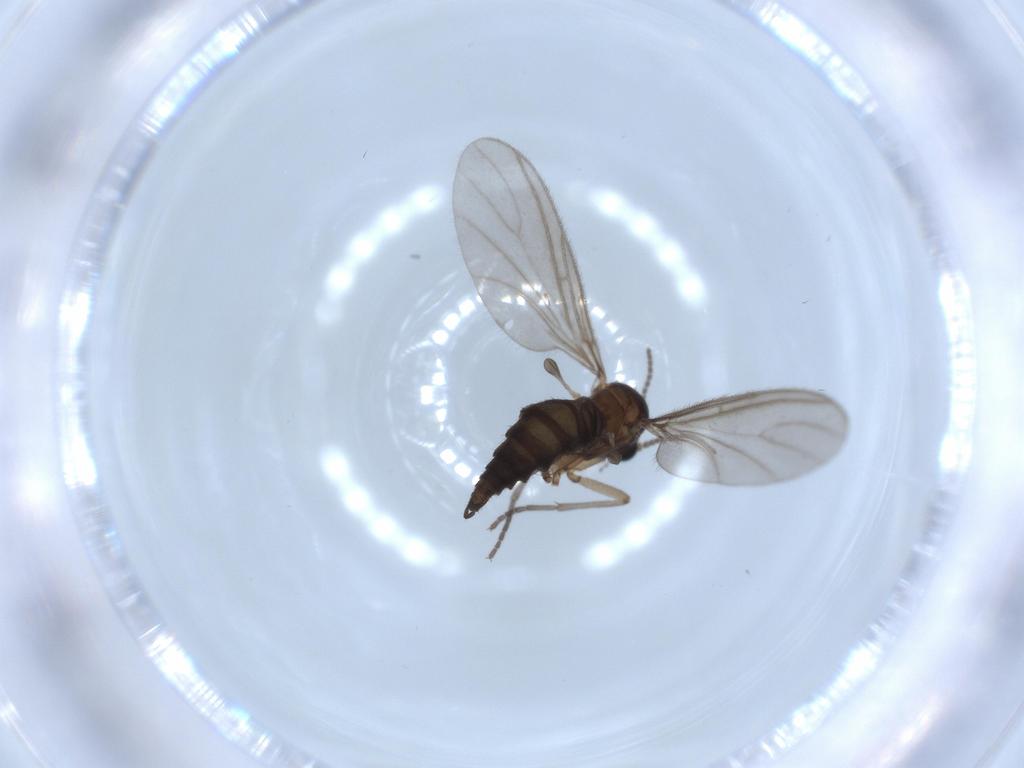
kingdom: Animalia
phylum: Arthropoda
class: Insecta
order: Diptera
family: Sciaridae
